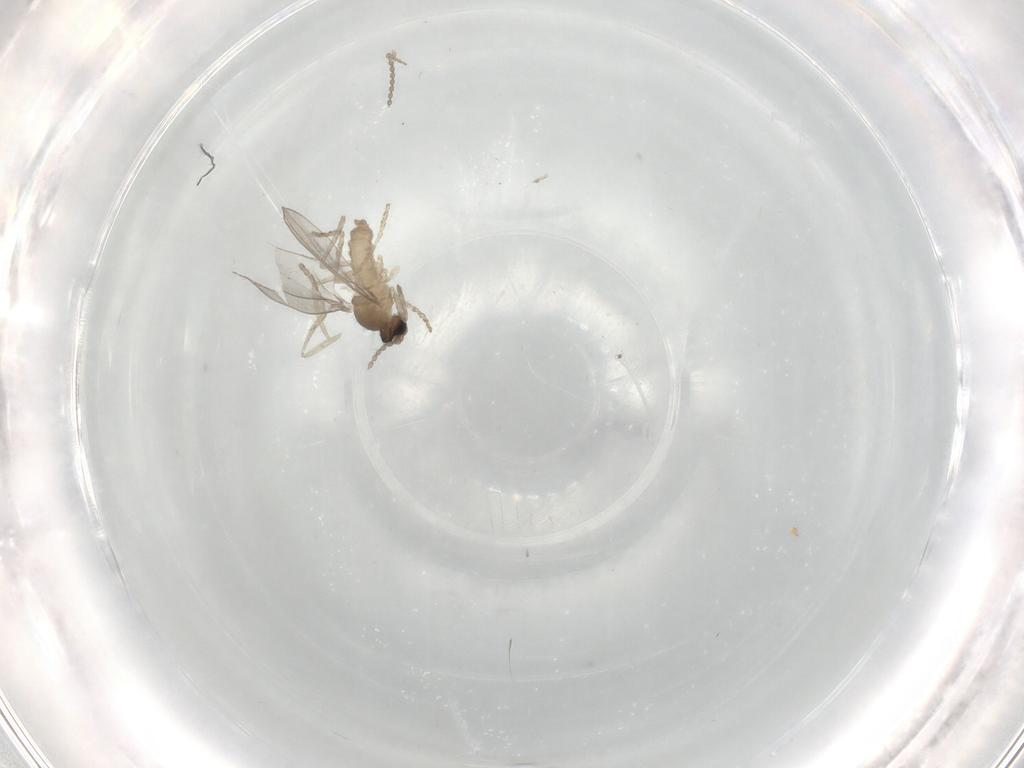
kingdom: Animalia
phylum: Arthropoda
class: Insecta
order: Diptera
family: Cecidomyiidae
